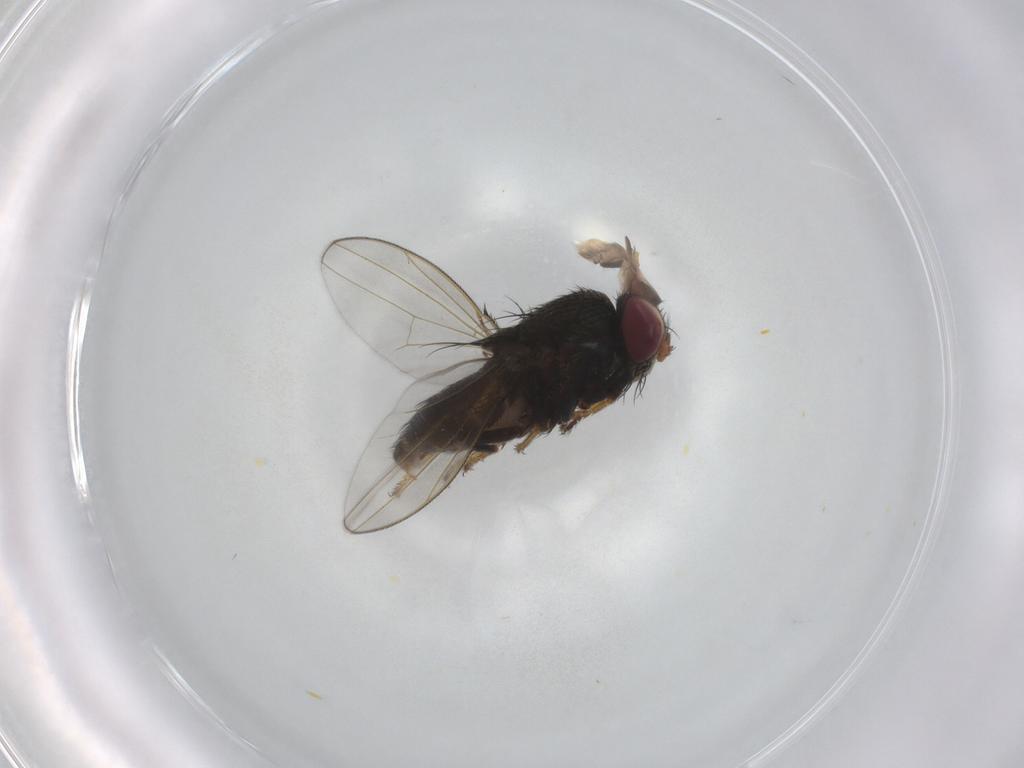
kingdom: Animalia
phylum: Arthropoda
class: Insecta
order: Diptera
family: Ephydridae
